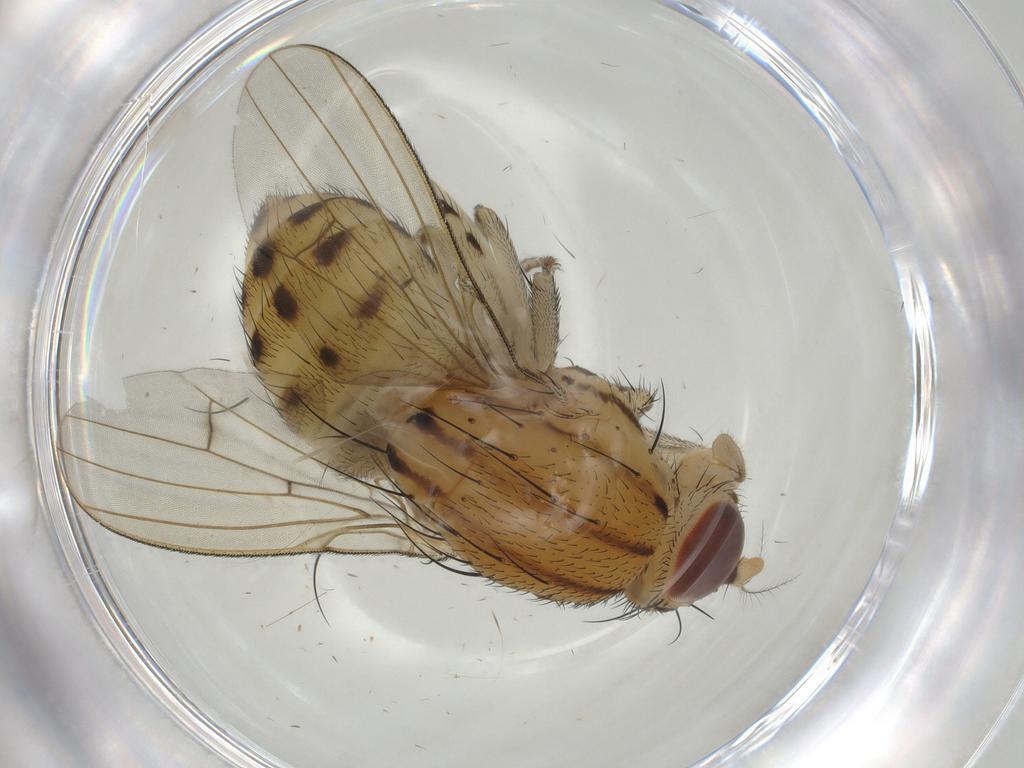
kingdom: Animalia
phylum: Arthropoda
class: Insecta
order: Diptera
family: Lauxaniidae
